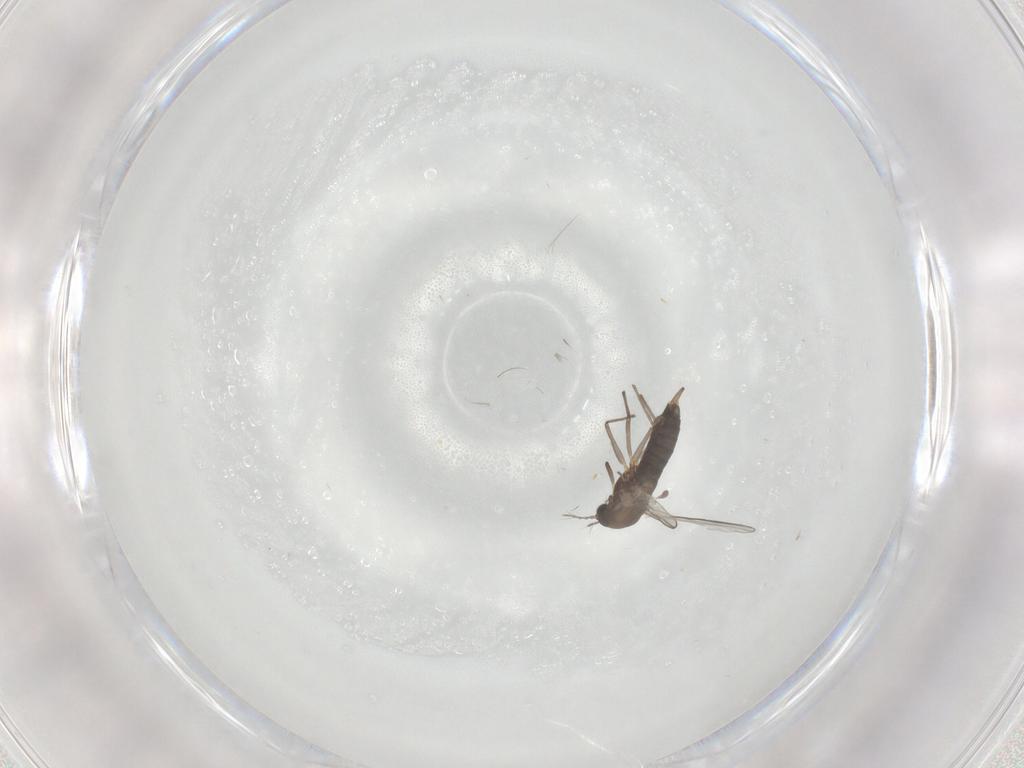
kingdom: Animalia
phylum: Arthropoda
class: Insecta
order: Diptera
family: Chironomidae
